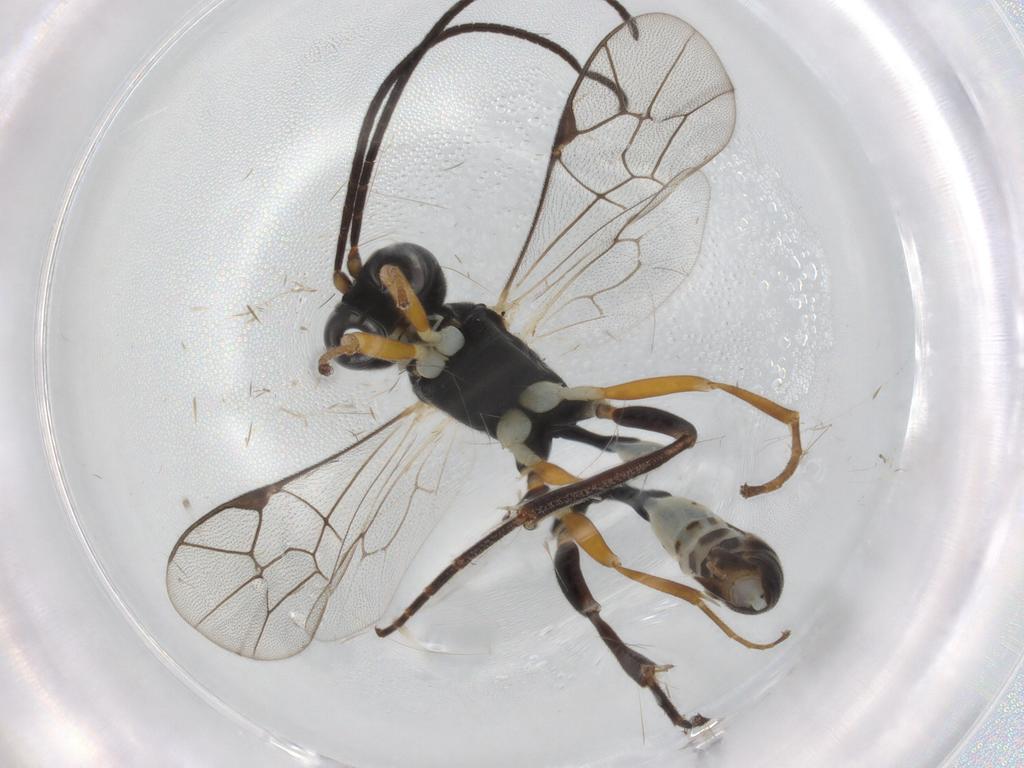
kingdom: Animalia
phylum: Arthropoda
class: Insecta
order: Hymenoptera
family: Ichneumonidae
